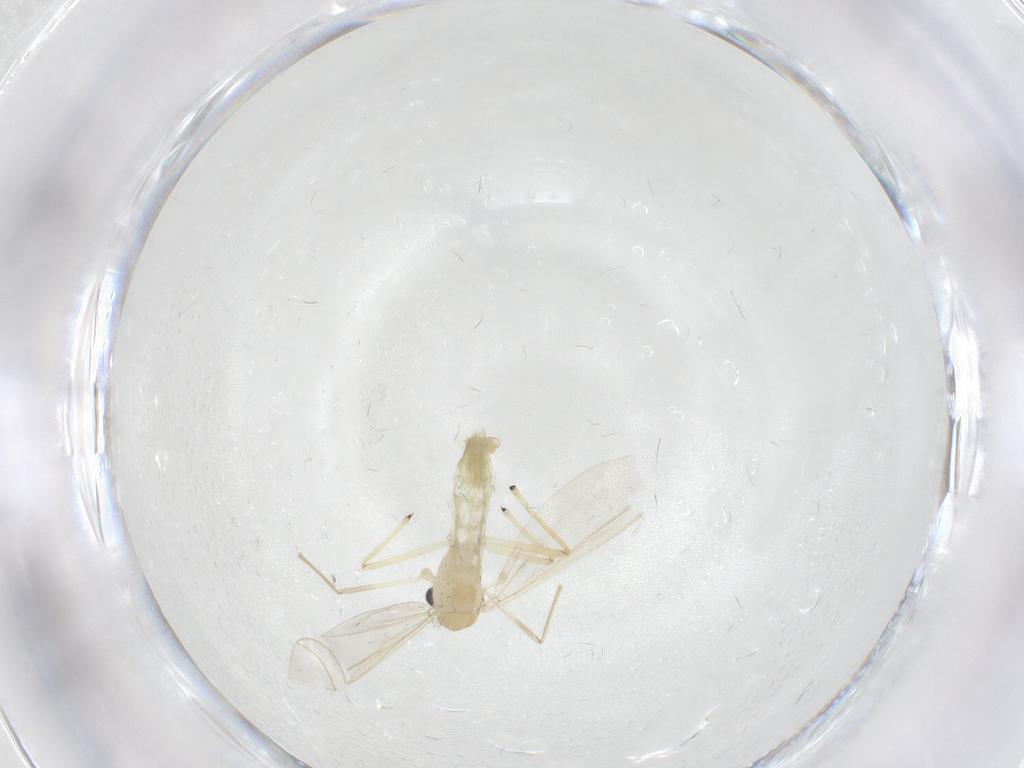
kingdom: Animalia
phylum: Arthropoda
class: Insecta
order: Diptera
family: Chironomidae
